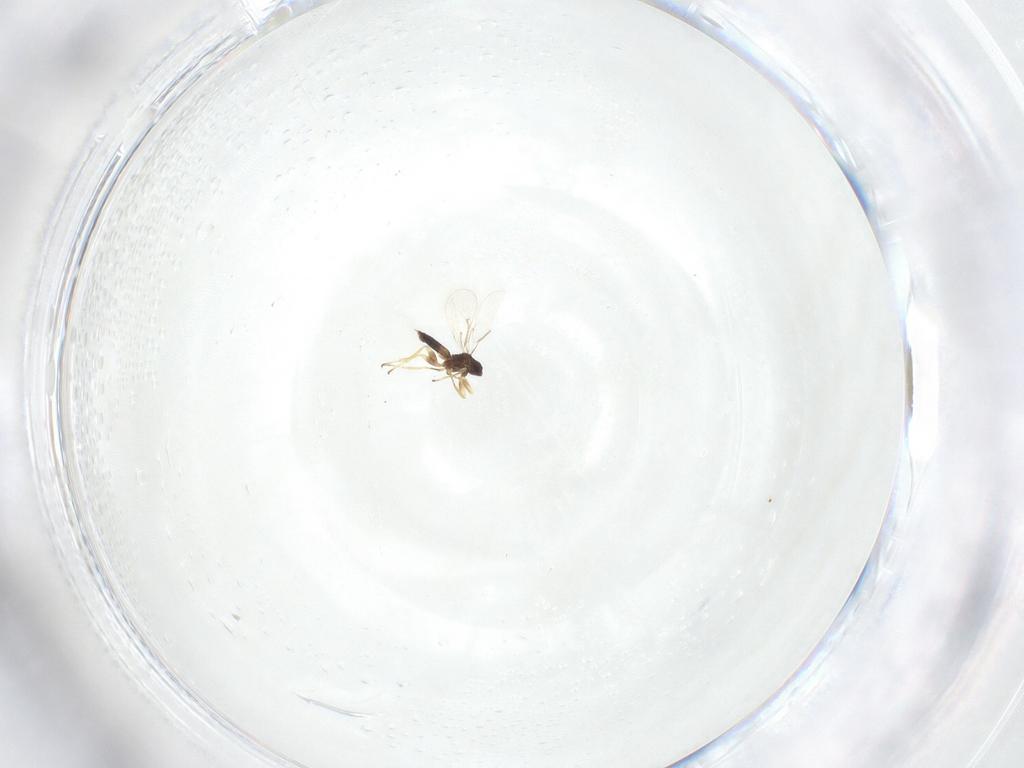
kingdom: Animalia
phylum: Arthropoda
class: Insecta
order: Hymenoptera
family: Eulophidae
